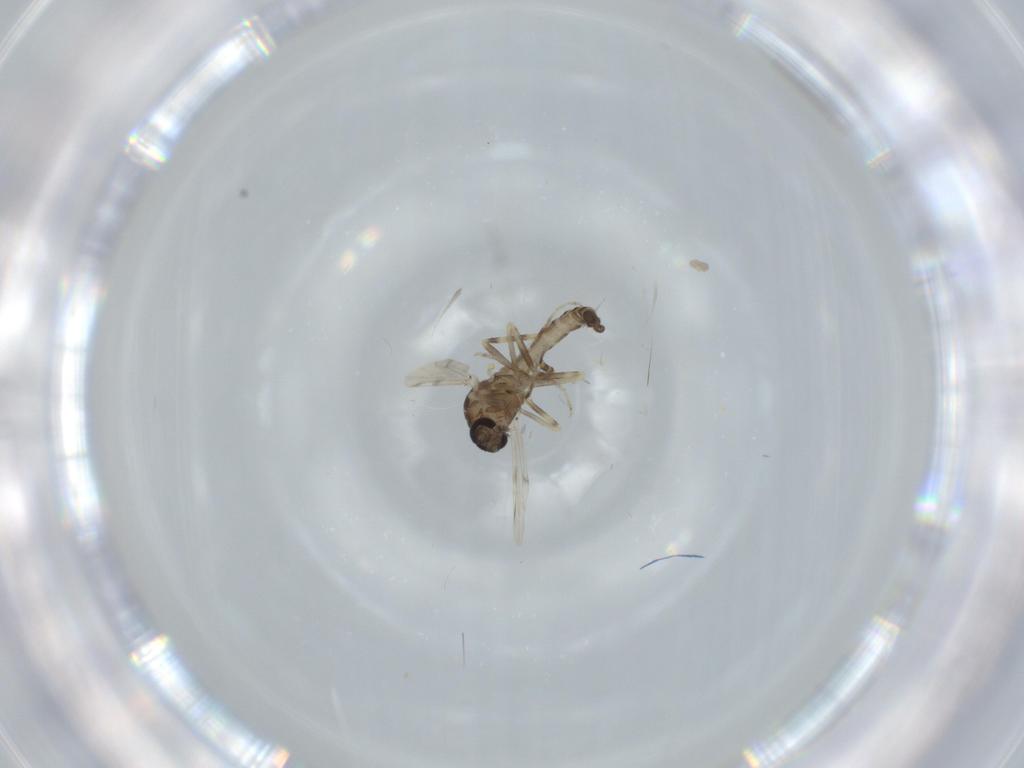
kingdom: Animalia
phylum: Arthropoda
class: Insecta
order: Diptera
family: Ceratopogonidae
